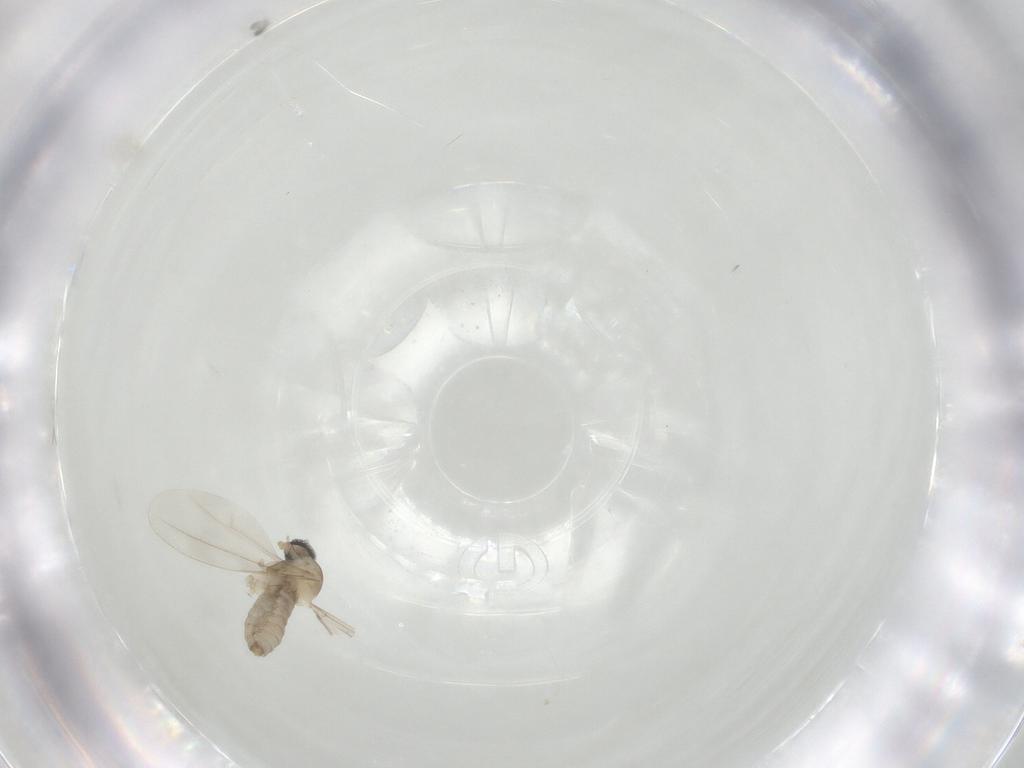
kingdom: Animalia
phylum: Arthropoda
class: Insecta
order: Diptera
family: Cecidomyiidae
